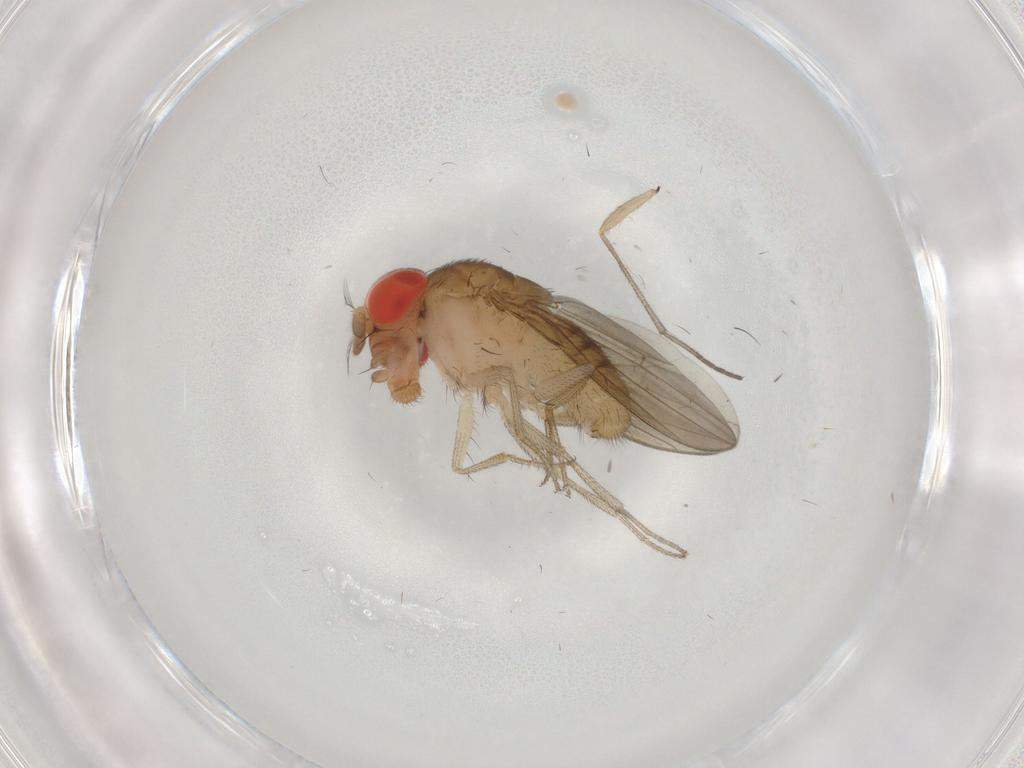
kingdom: Animalia
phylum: Arthropoda
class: Insecta
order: Diptera
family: Drosophilidae
